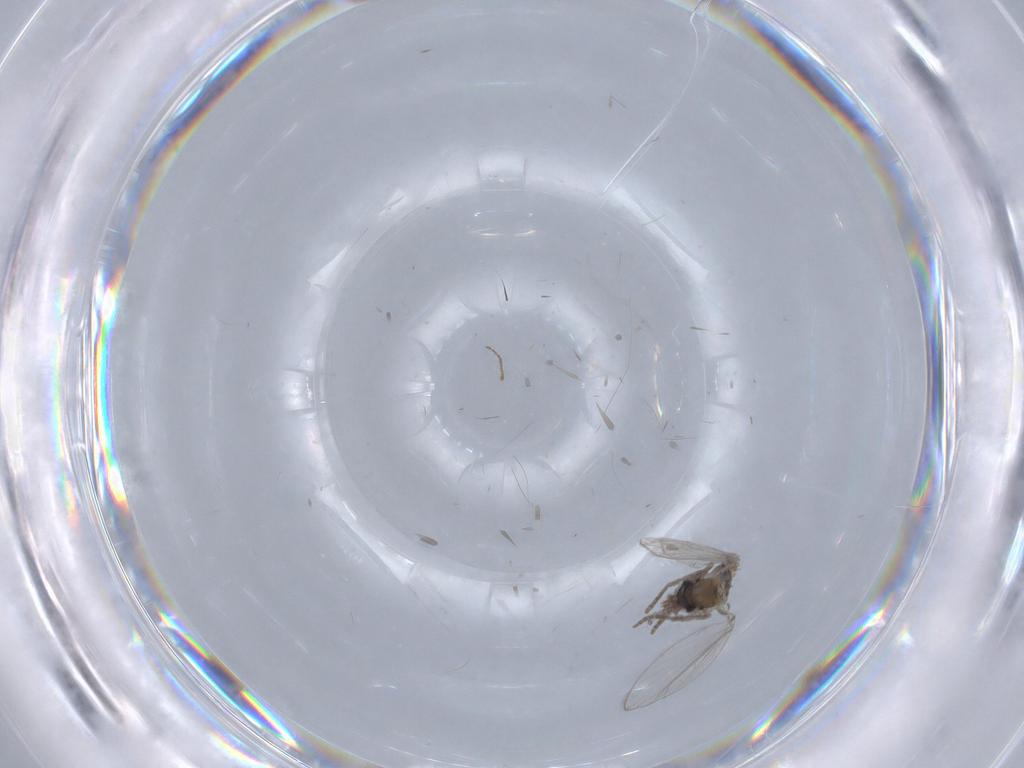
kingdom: Animalia
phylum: Arthropoda
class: Insecta
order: Diptera
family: Psychodidae
